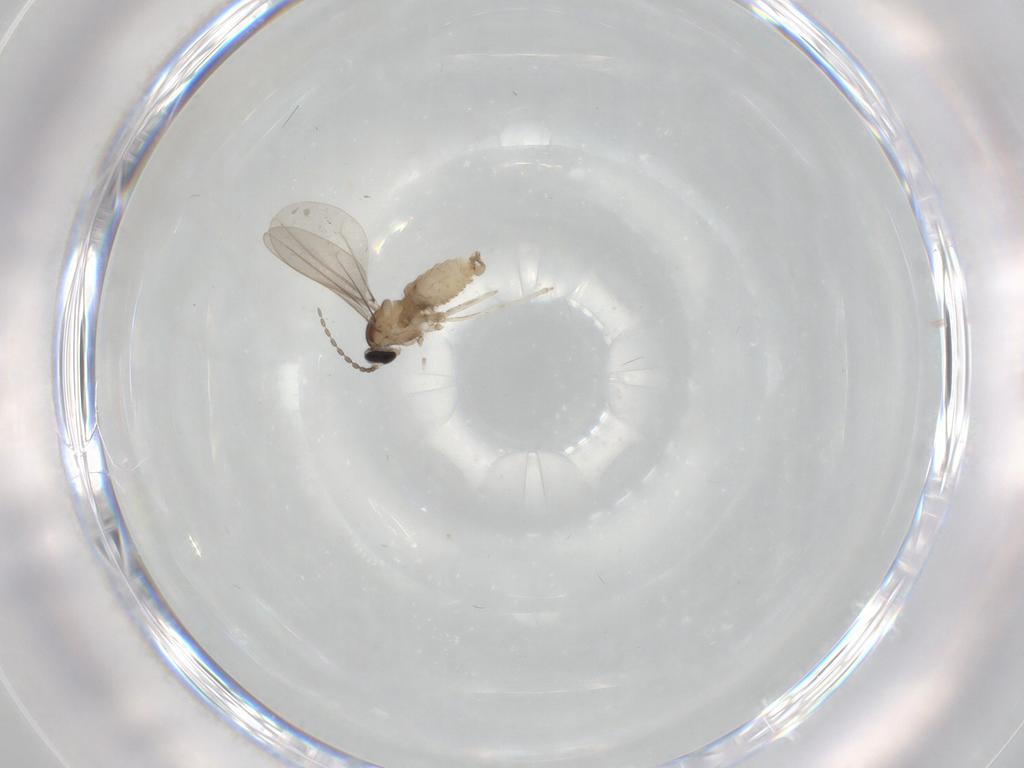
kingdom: Animalia
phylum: Arthropoda
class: Insecta
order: Diptera
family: Cecidomyiidae
